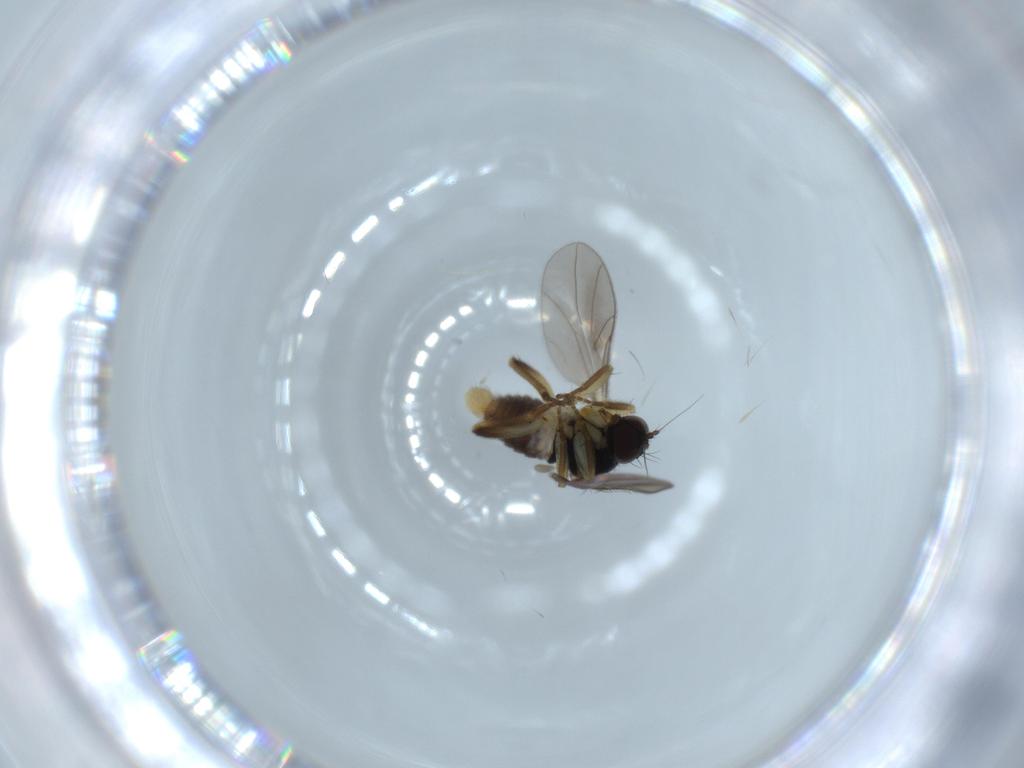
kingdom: Animalia
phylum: Arthropoda
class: Insecta
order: Diptera
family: Hybotidae
